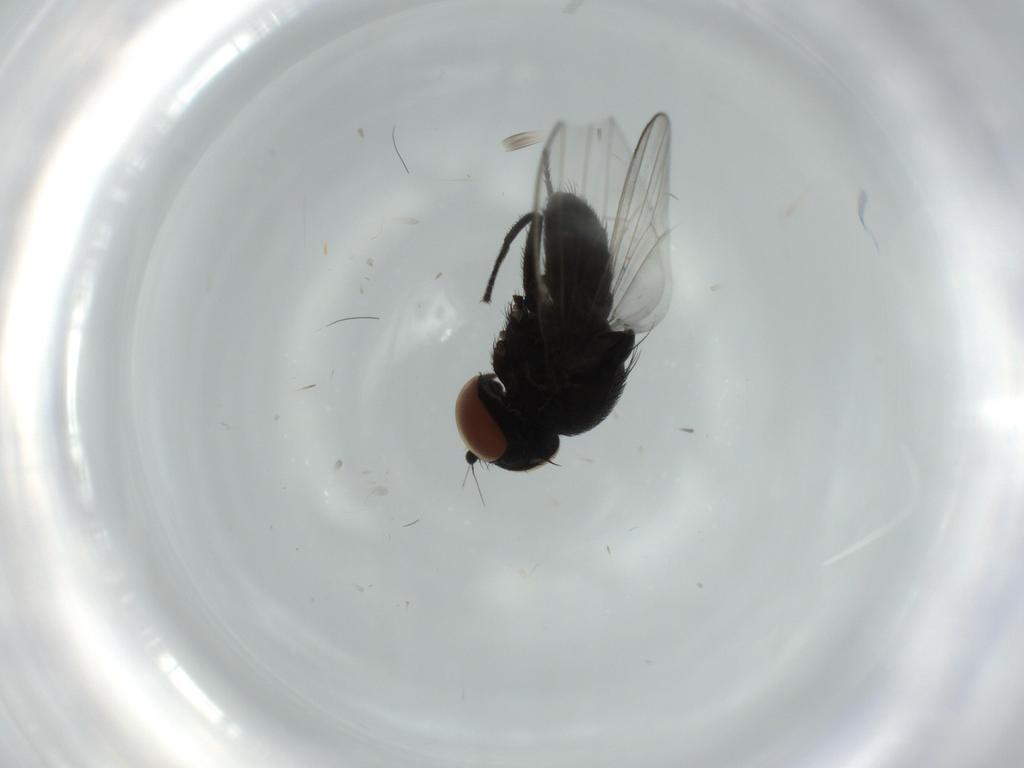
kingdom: Animalia
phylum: Arthropoda
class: Insecta
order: Diptera
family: Milichiidae
